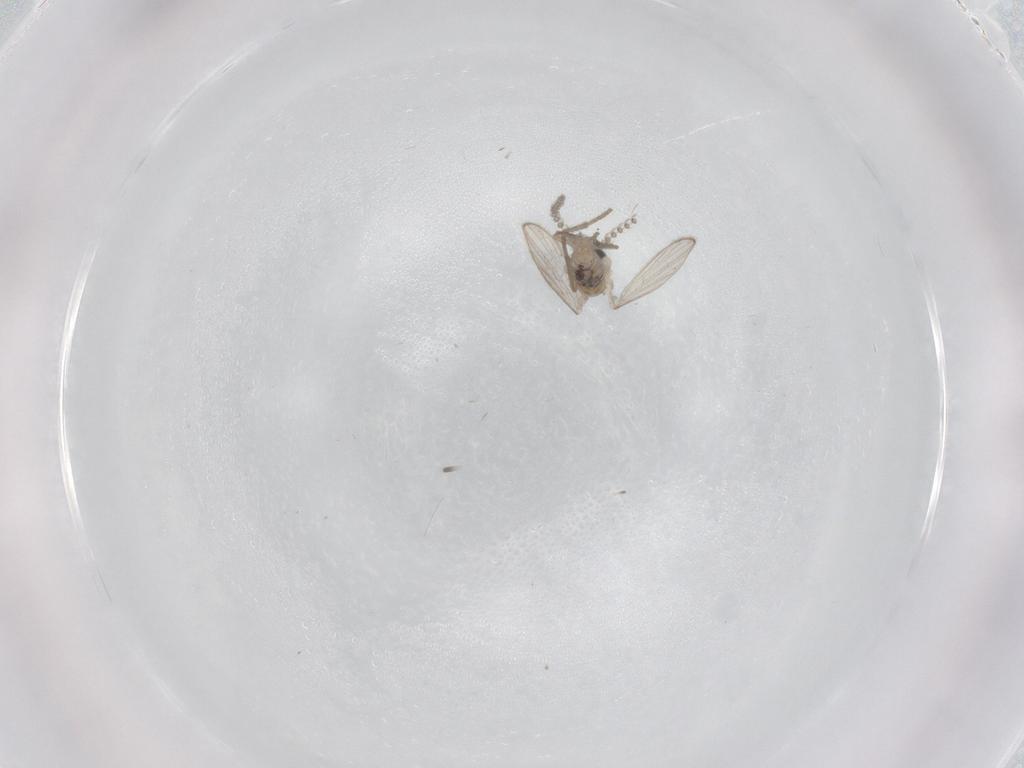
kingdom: Animalia
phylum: Arthropoda
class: Insecta
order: Diptera
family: Psychodidae
